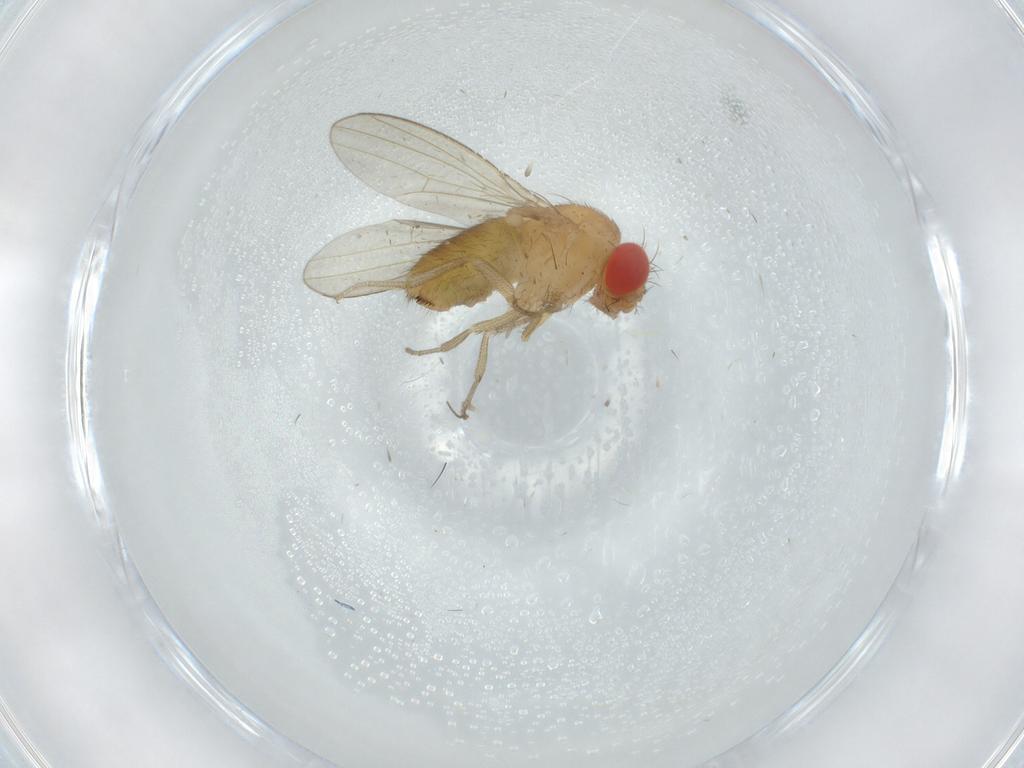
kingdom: Animalia
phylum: Arthropoda
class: Insecta
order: Diptera
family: Drosophilidae
